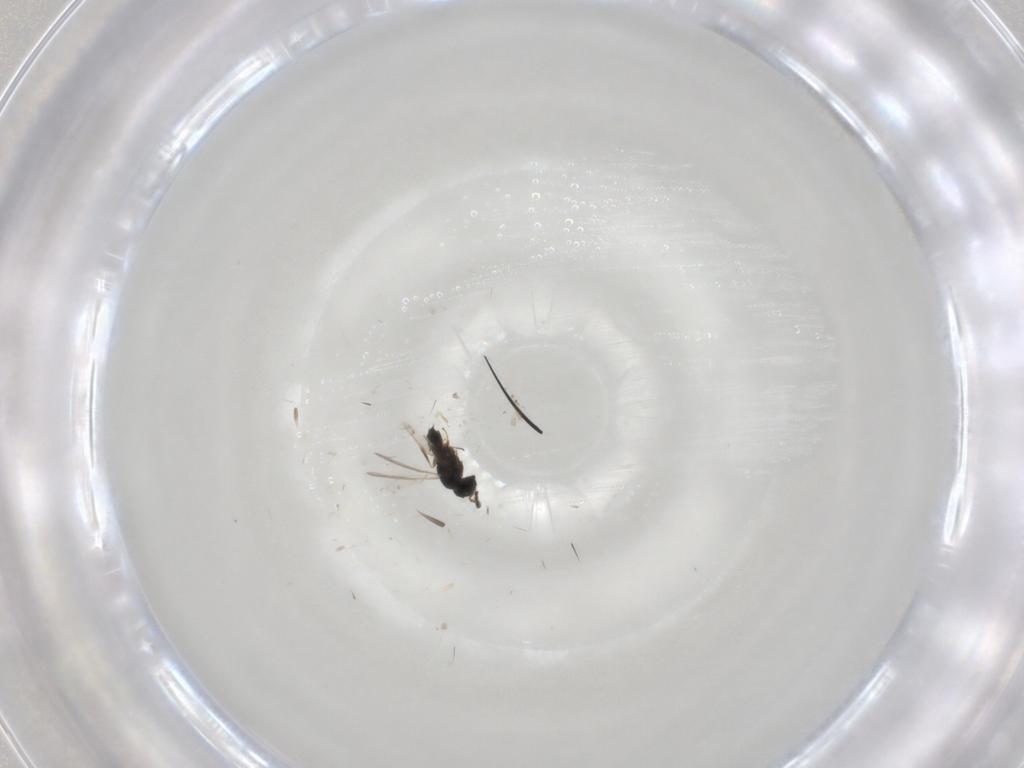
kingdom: Animalia
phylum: Arthropoda
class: Insecta
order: Hymenoptera
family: Scelionidae
